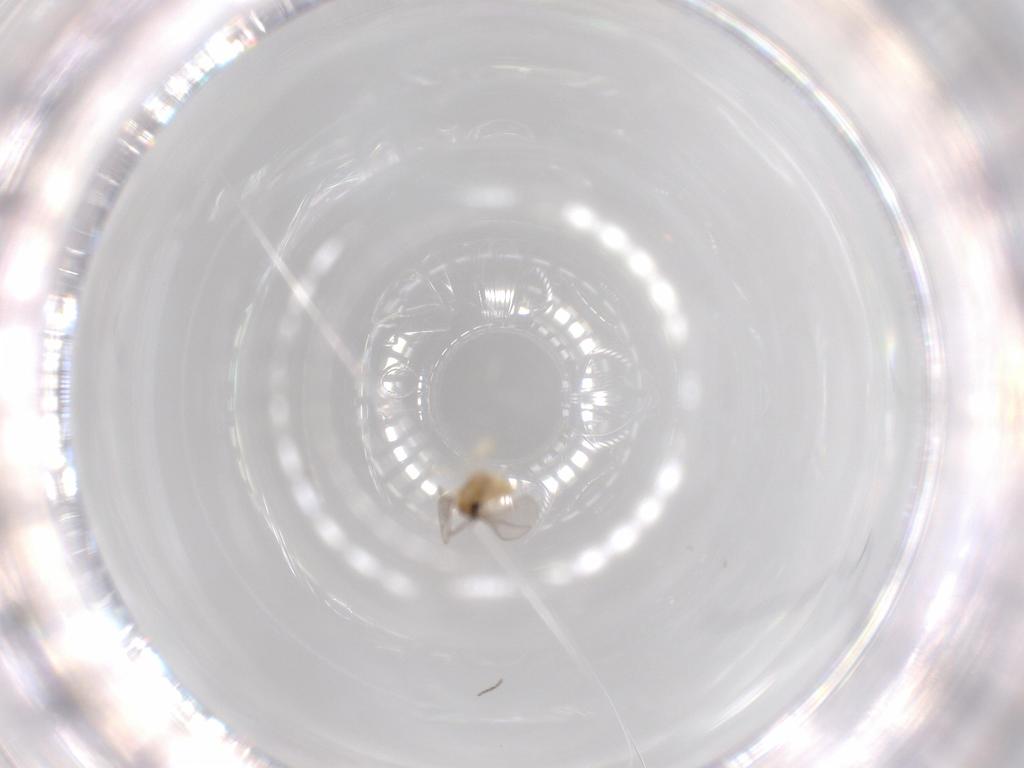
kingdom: Animalia
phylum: Arthropoda
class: Insecta
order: Diptera
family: Cecidomyiidae
